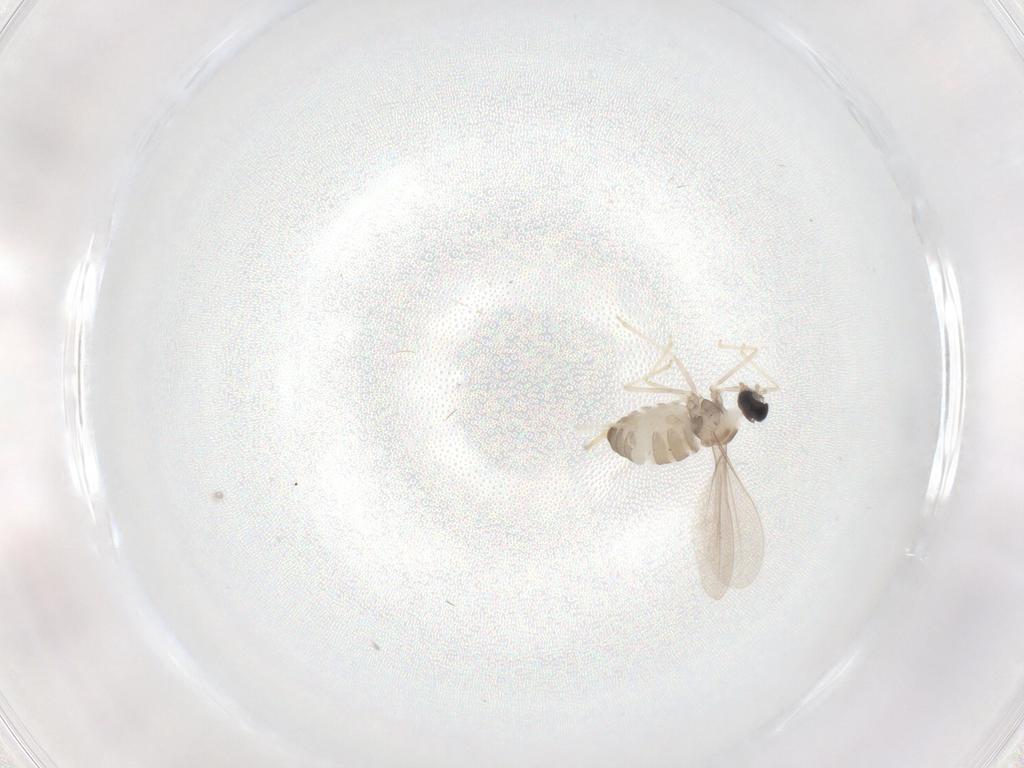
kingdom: Animalia
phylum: Arthropoda
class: Insecta
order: Diptera
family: Cecidomyiidae
